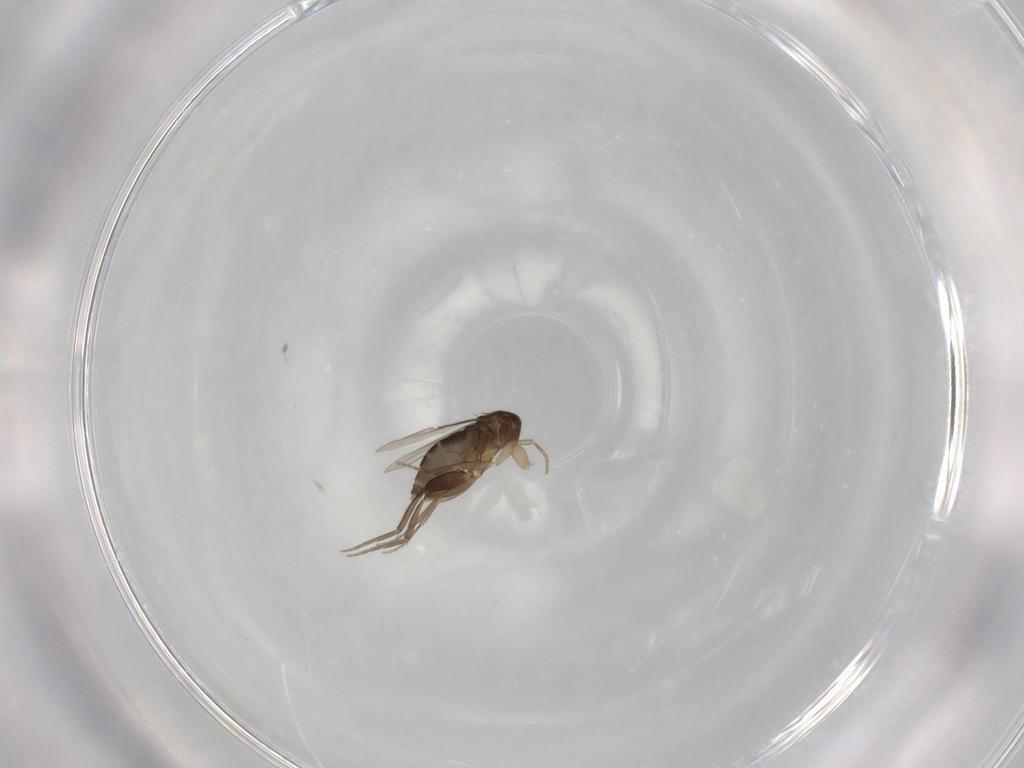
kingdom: Animalia
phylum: Arthropoda
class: Insecta
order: Diptera
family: Phoridae
